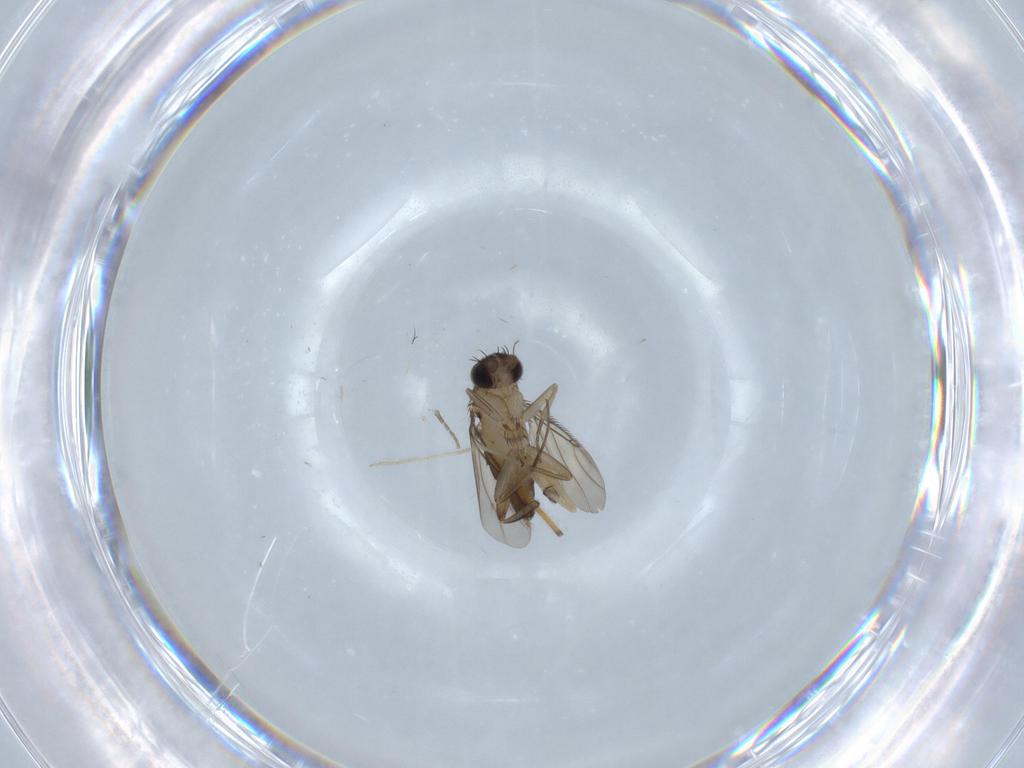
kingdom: Animalia
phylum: Arthropoda
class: Insecta
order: Diptera
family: Phoridae
